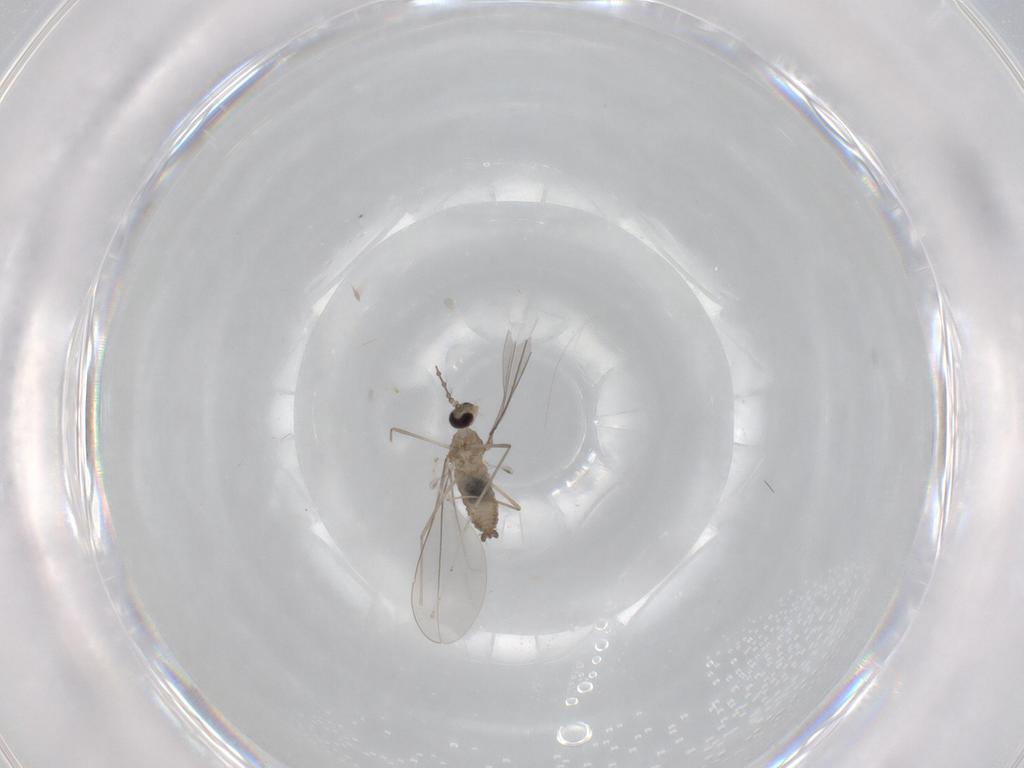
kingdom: Animalia
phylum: Arthropoda
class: Insecta
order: Diptera
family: Cecidomyiidae
